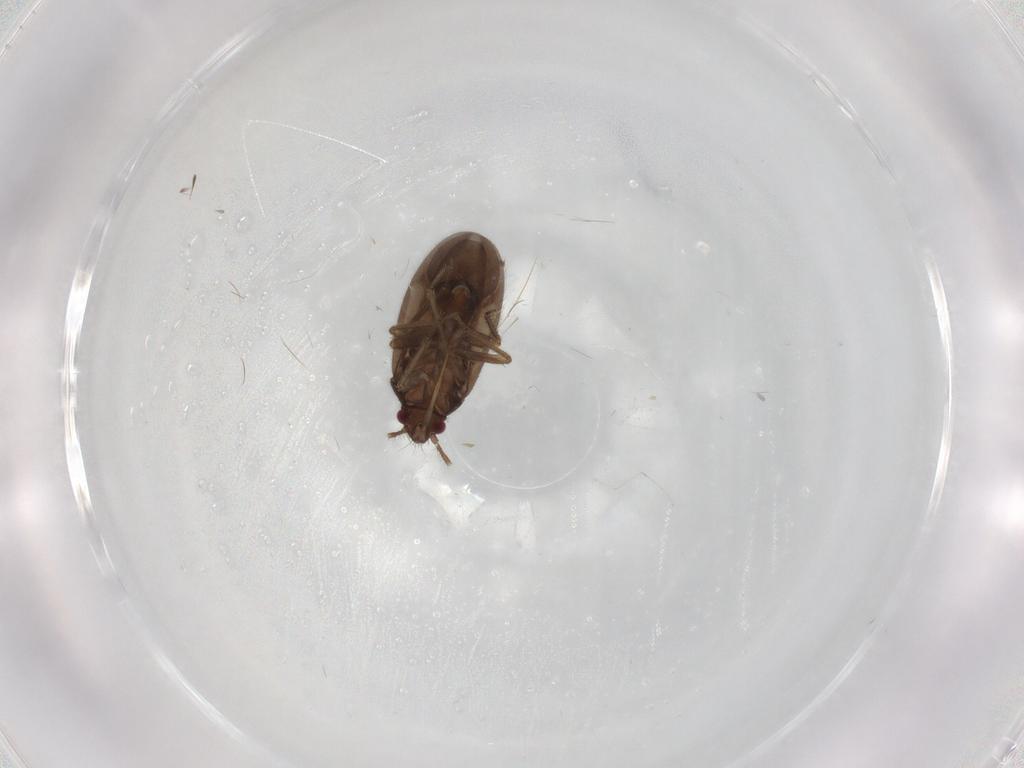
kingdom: Animalia
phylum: Arthropoda
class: Insecta
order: Hemiptera
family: Ceratocombidae
